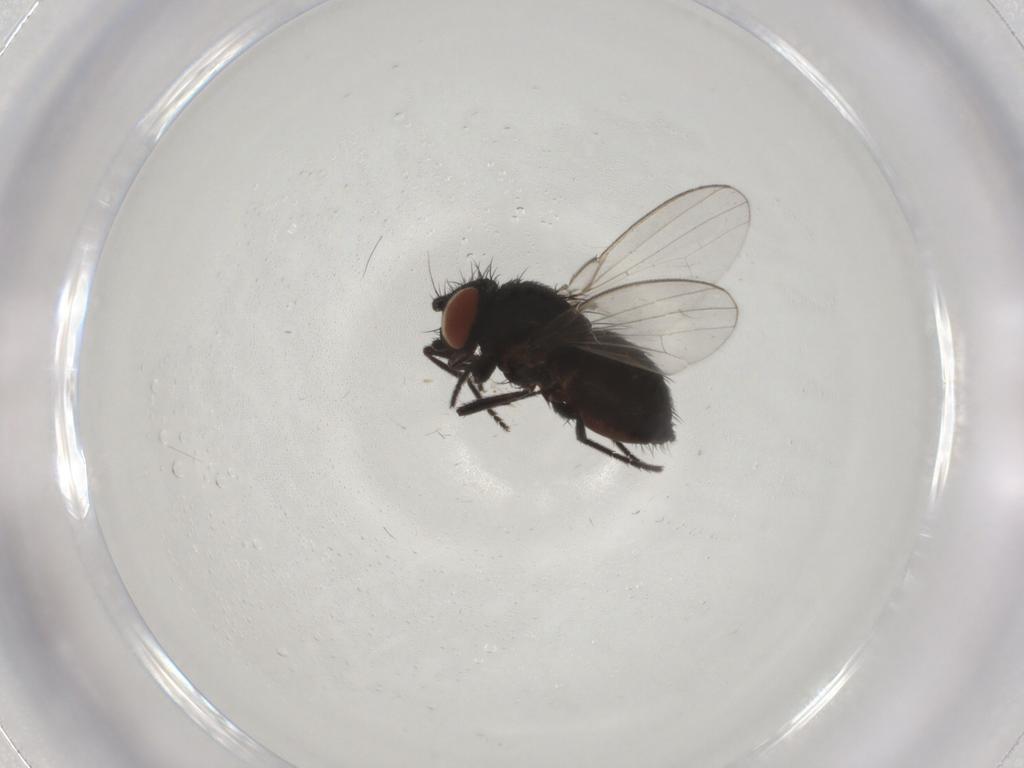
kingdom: Animalia
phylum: Arthropoda
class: Insecta
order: Diptera
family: Milichiidae
